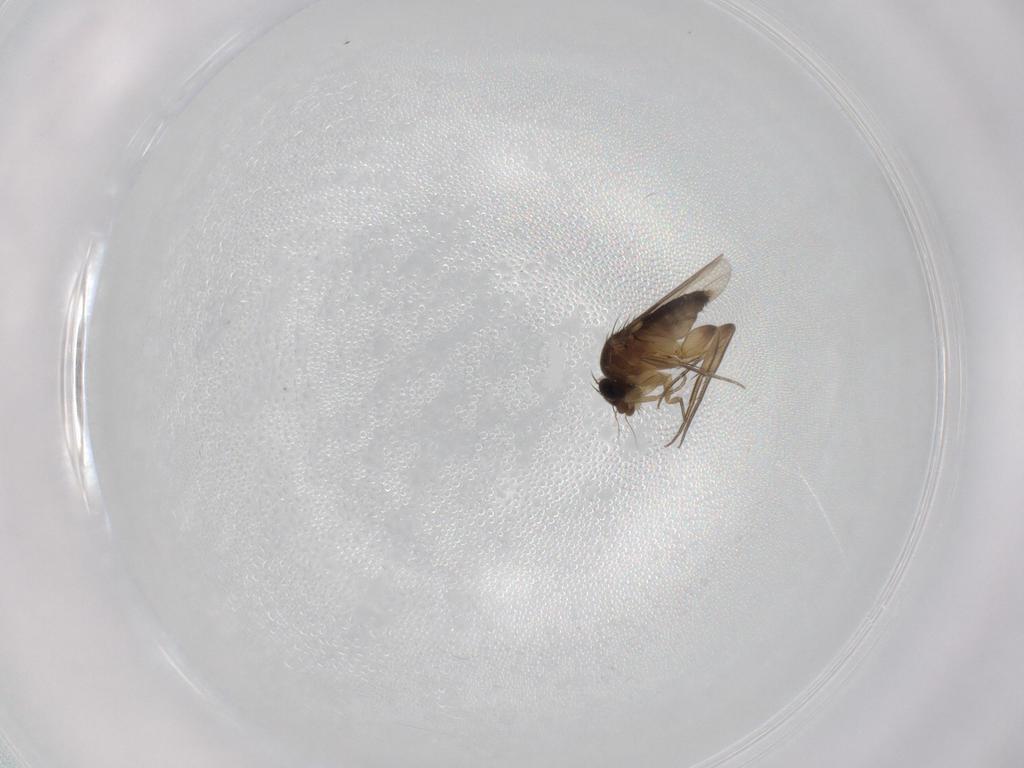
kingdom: Animalia
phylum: Arthropoda
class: Insecta
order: Diptera
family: Phoridae
